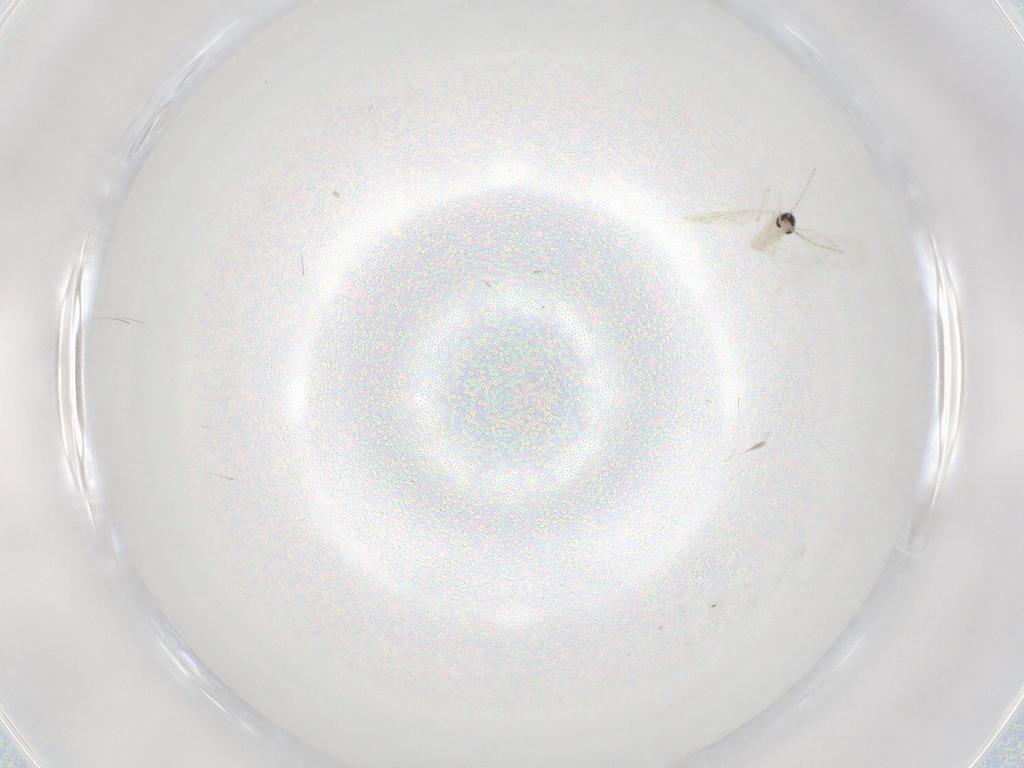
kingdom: Animalia
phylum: Arthropoda
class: Insecta
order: Diptera
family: Cecidomyiidae
